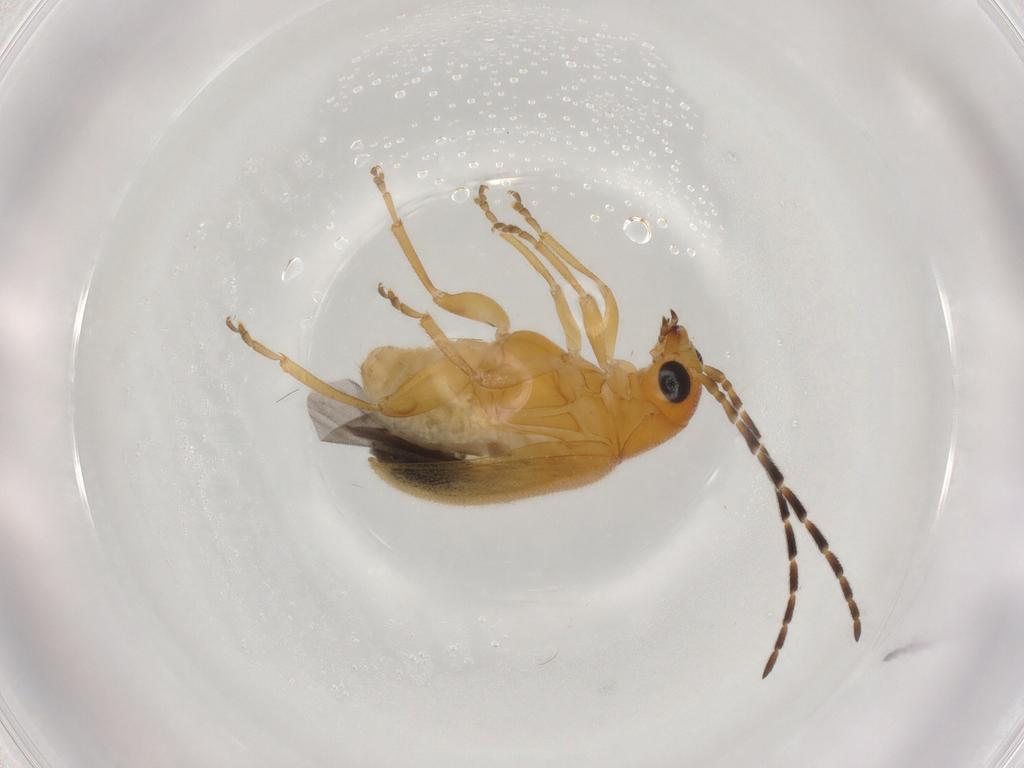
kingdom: Animalia
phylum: Arthropoda
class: Insecta
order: Coleoptera
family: Chrysomelidae
